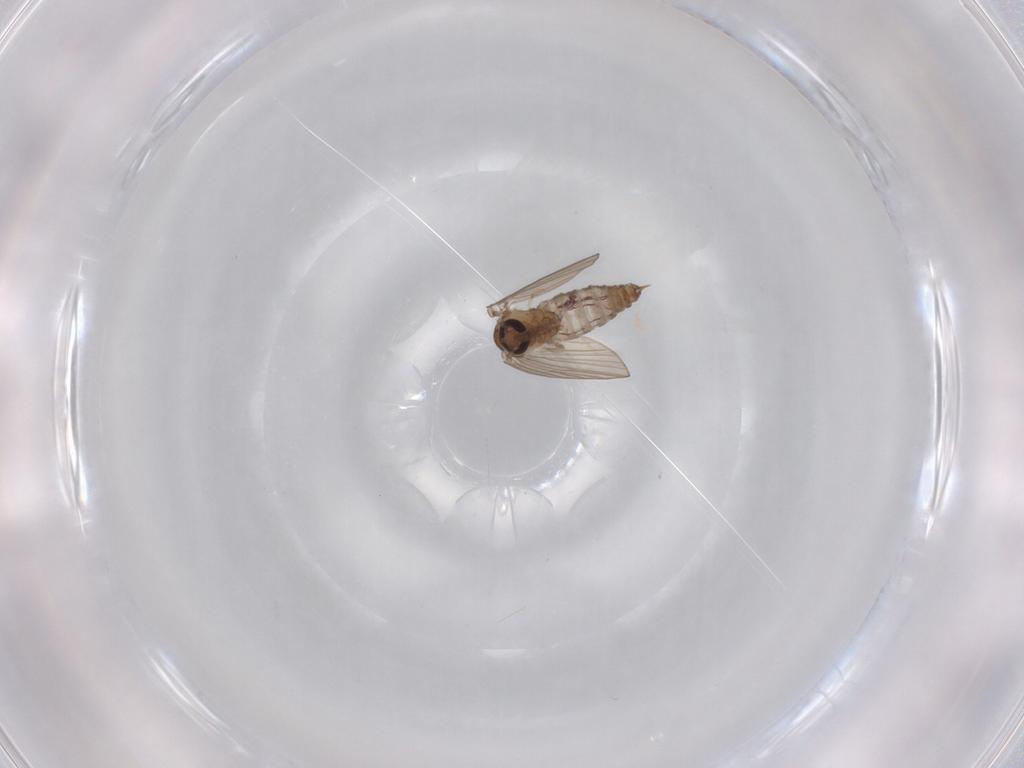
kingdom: Animalia
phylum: Arthropoda
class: Insecta
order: Diptera
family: Psychodidae
